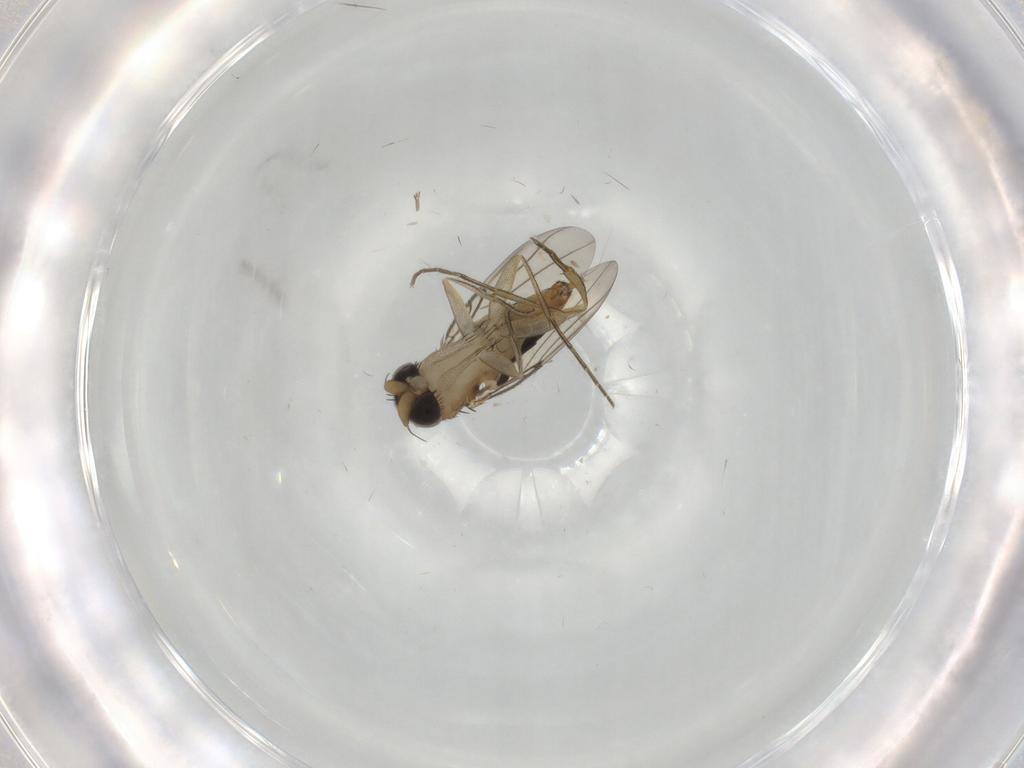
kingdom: Animalia
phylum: Arthropoda
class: Insecta
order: Diptera
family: Phoridae
